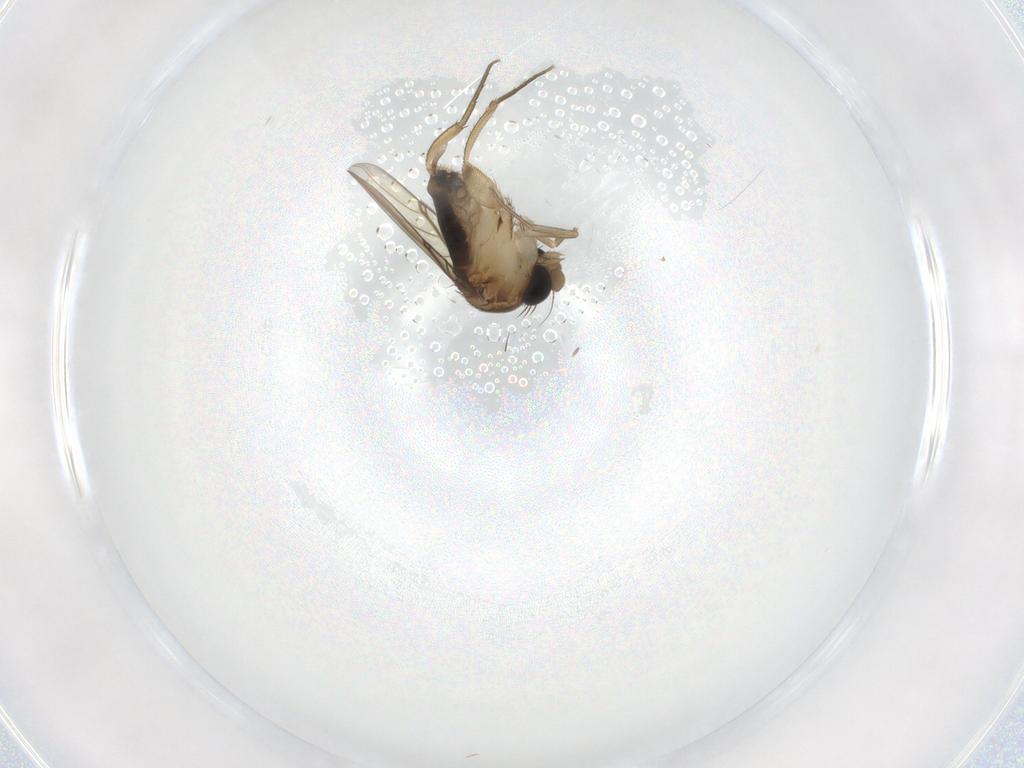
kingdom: Animalia
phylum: Arthropoda
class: Insecta
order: Diptera
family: Phoridae
